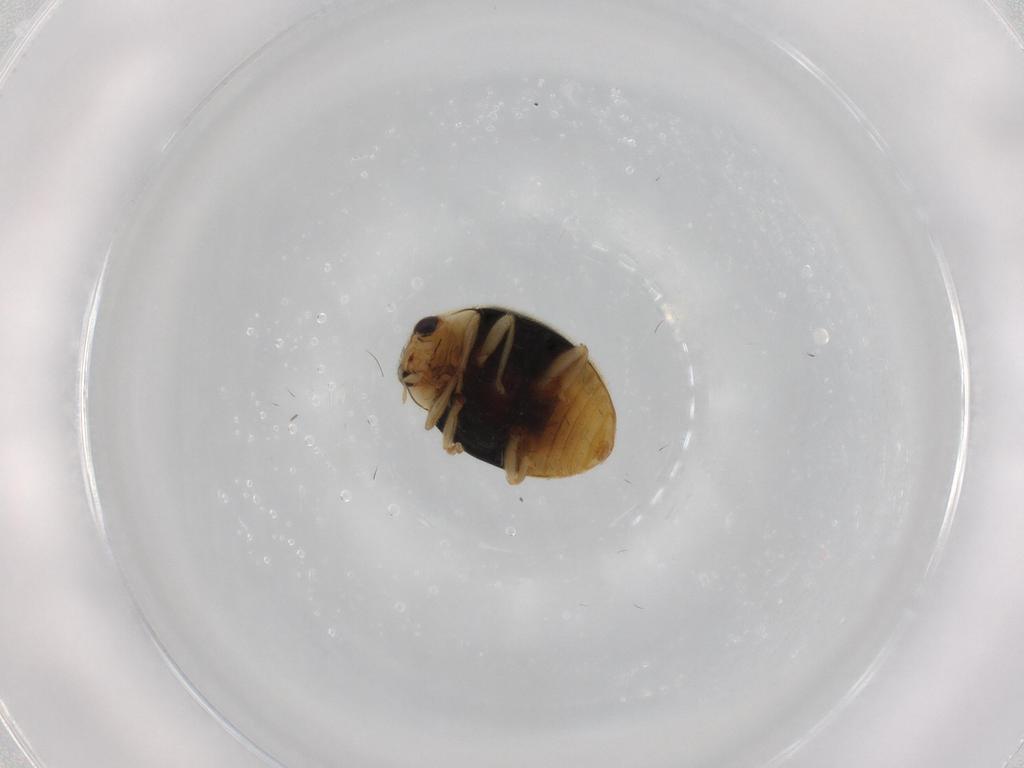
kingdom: Animalia
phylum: Arthropoda
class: Insecta
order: Coleoptera
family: Coccinellidae
